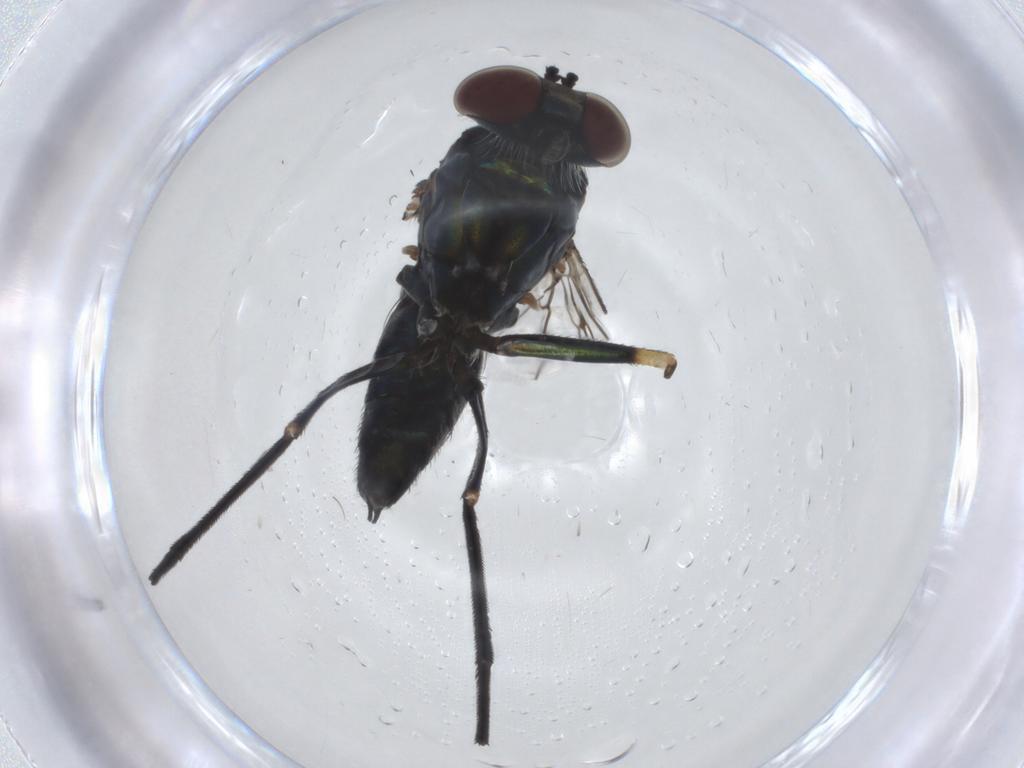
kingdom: Animalia
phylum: Arthropoda
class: Insecta
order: Diptera
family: Dolichopodidae
